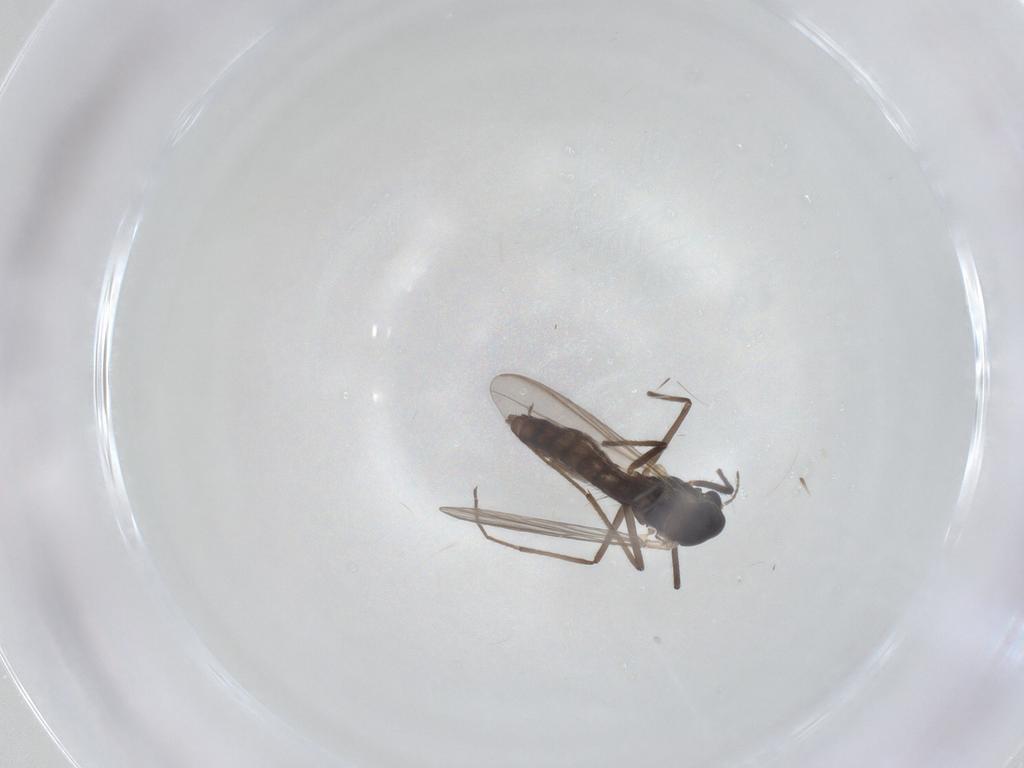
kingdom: Animalia
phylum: Arthropoda
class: Insecta
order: Diptera
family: Chironomidae
